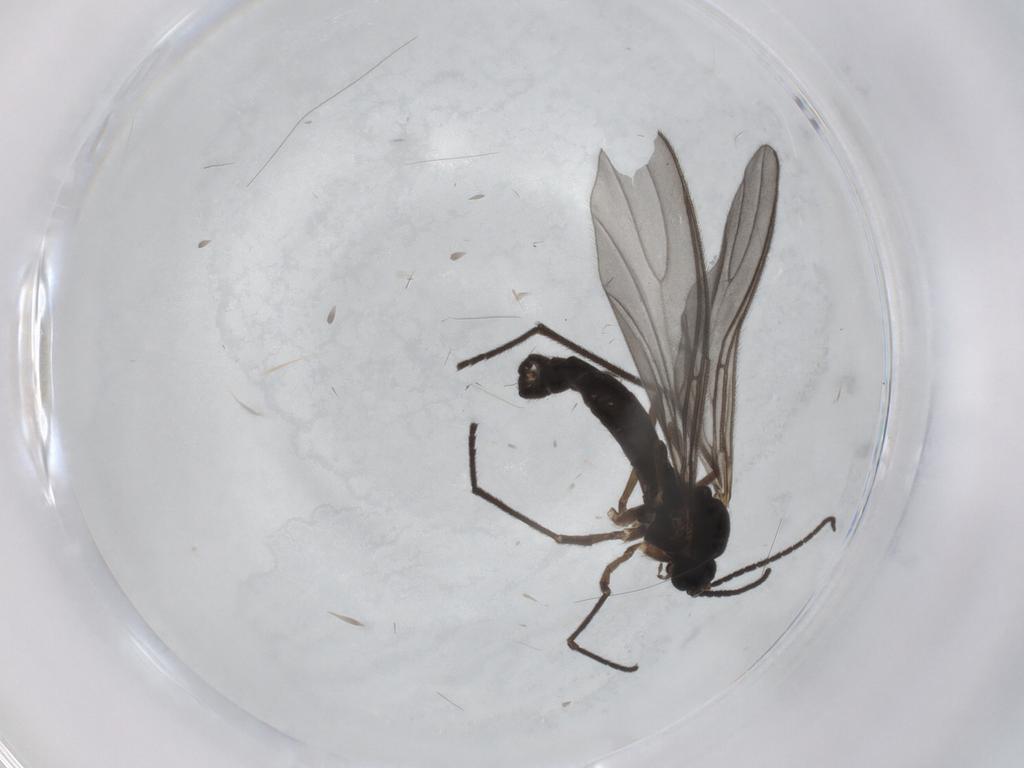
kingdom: Animalia
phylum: Arthropoda
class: Insecta
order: Diptera
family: Sciaridae
